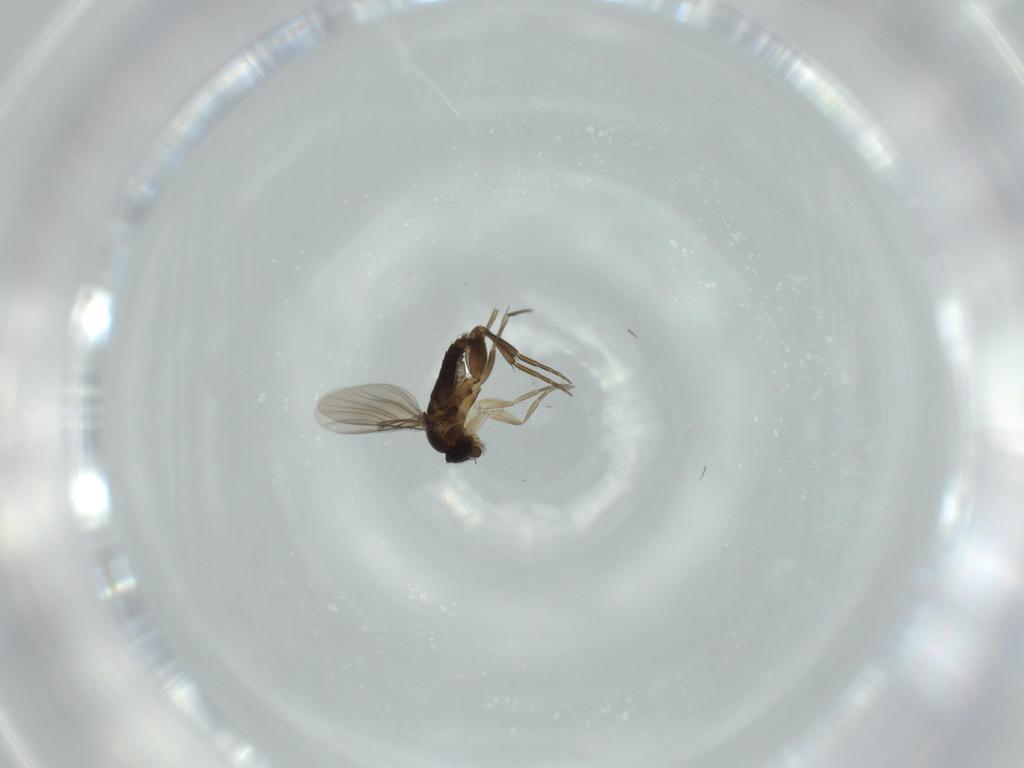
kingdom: Animalia
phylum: Arthropoda
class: Insecta
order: Diptera
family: Phoridae
